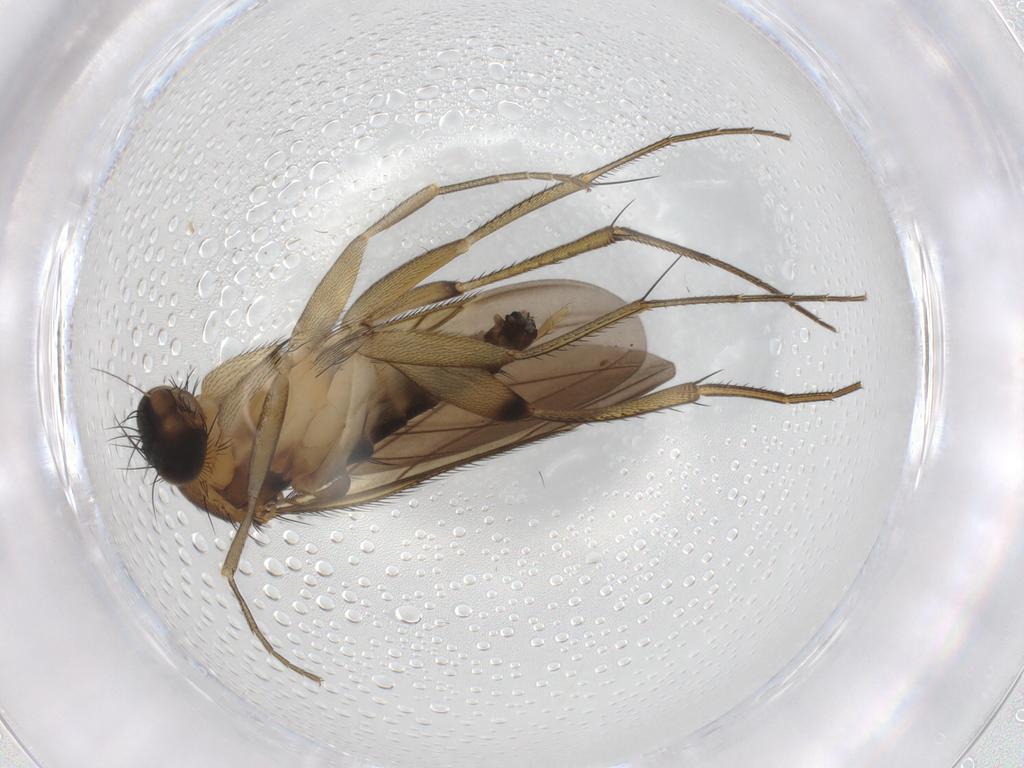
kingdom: Animalia
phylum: Arthropoda
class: Insecta
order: Diptera
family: Phoridae
